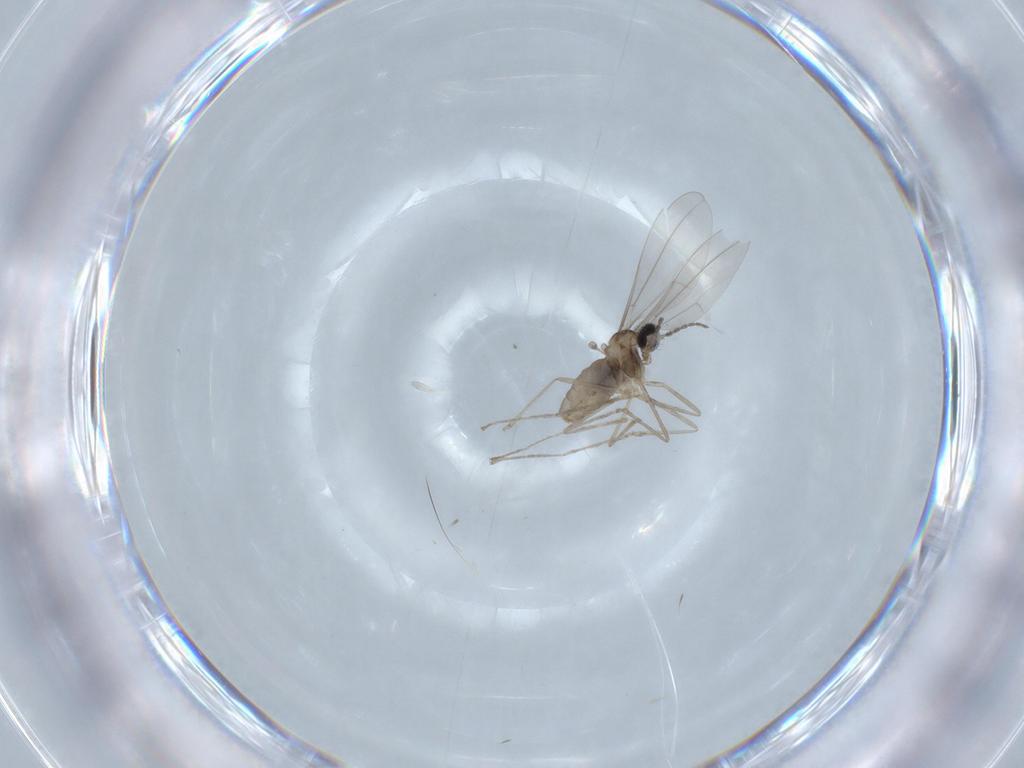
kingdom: Animalia
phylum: Arthropoda
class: Insecta
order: Diptera
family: Cecidomyiidae
